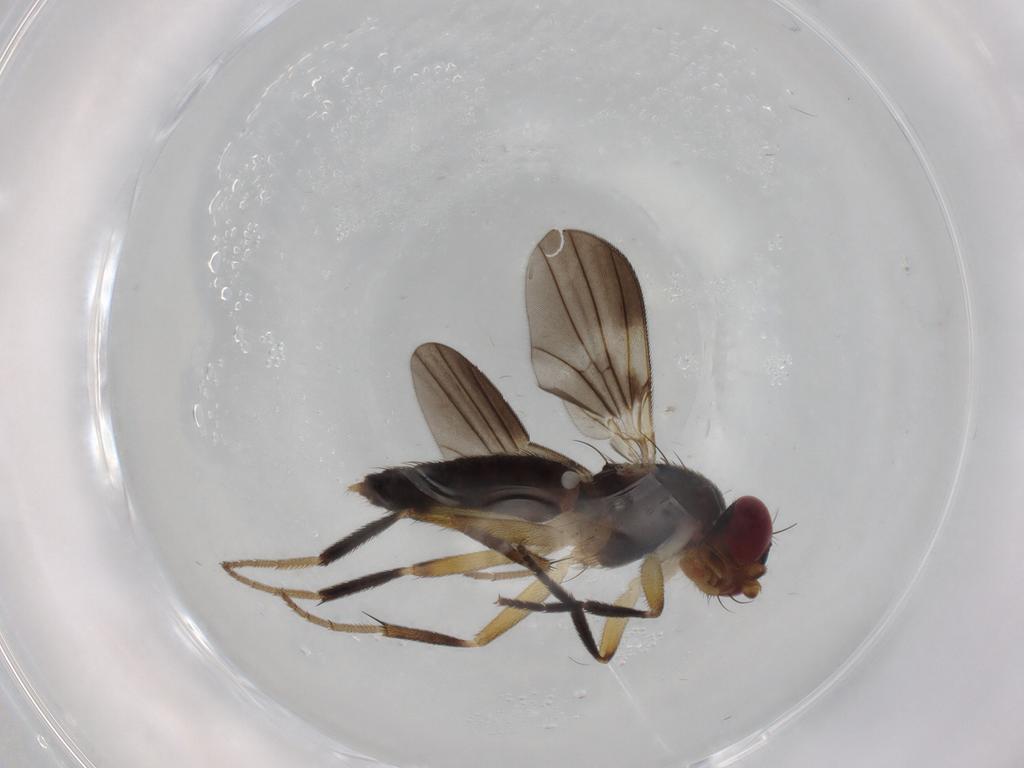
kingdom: Animalia
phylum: Arthropoda
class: Insecta
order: Diptera
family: Clusiidae
